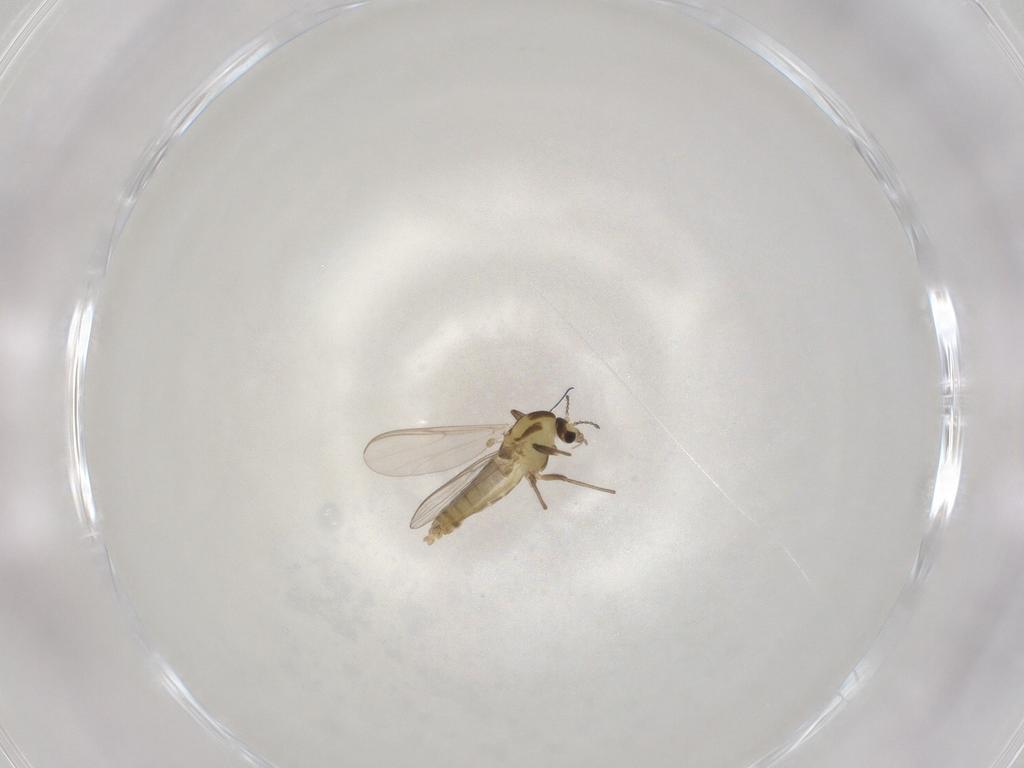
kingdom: Animalia
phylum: Arthropoda
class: Insecta
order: Diptera
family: Chironomidae
